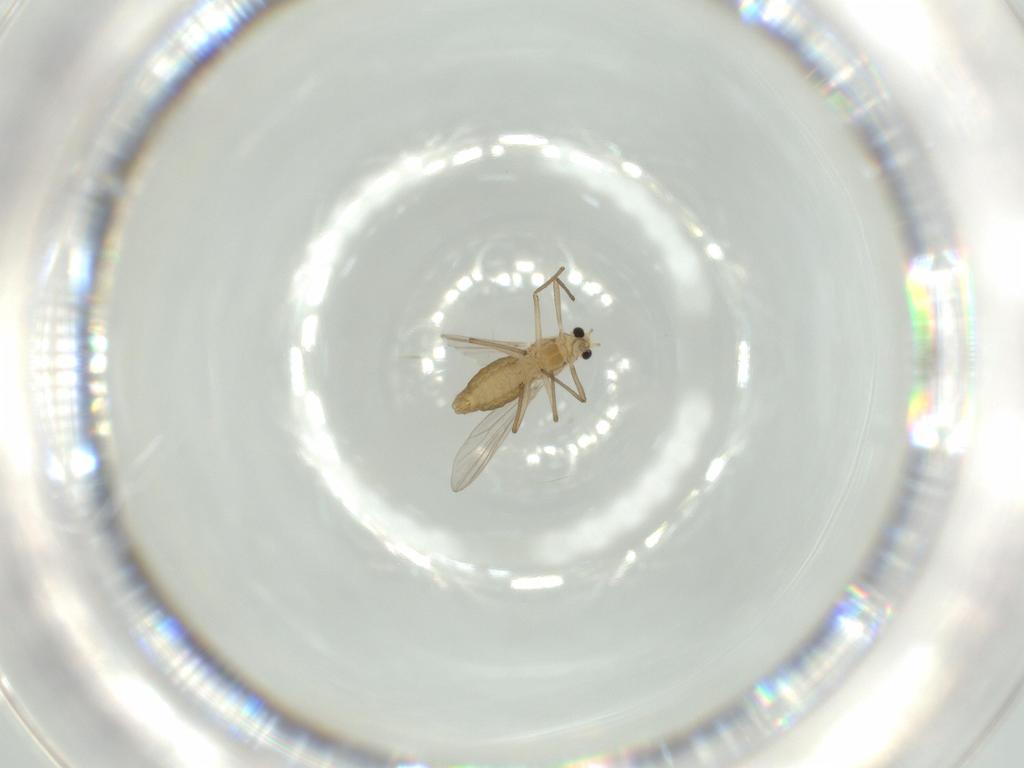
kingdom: Animalia
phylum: Arthropoda
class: Insecta
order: Diptera
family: Chironomidae
